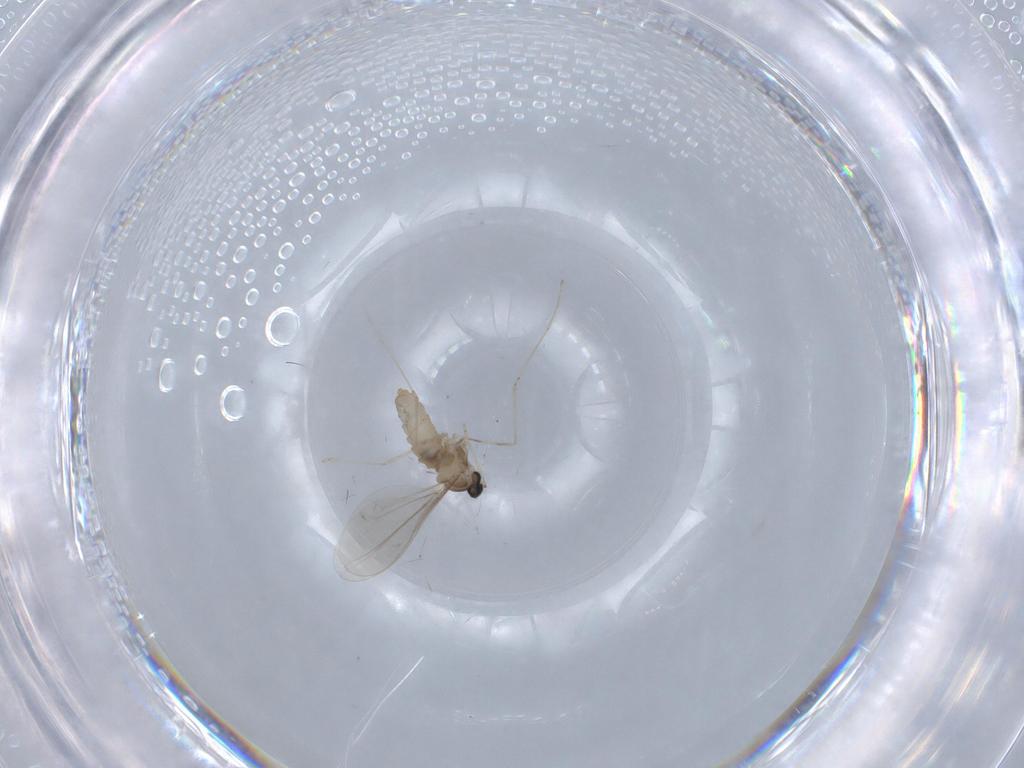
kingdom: Animalia
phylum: Arthropoda
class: Insecta
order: Diptera
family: Cecidomyiidae
